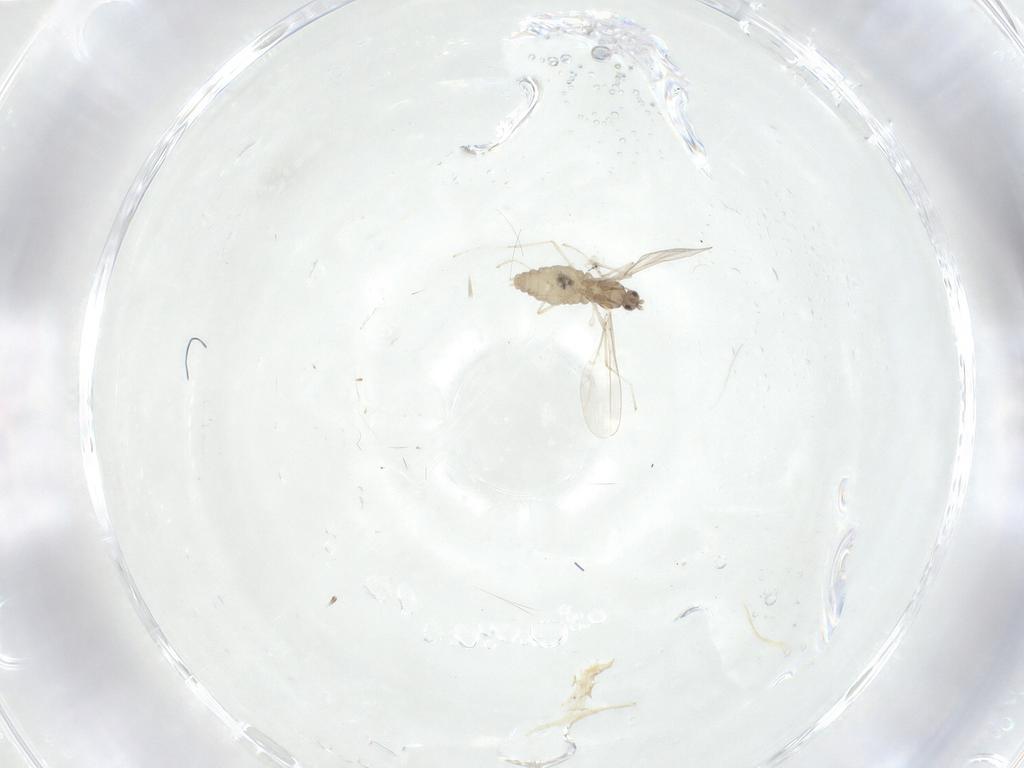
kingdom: Animalia
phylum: Arthropoda
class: Insecta
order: Diptera
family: Cecidomyiidae
